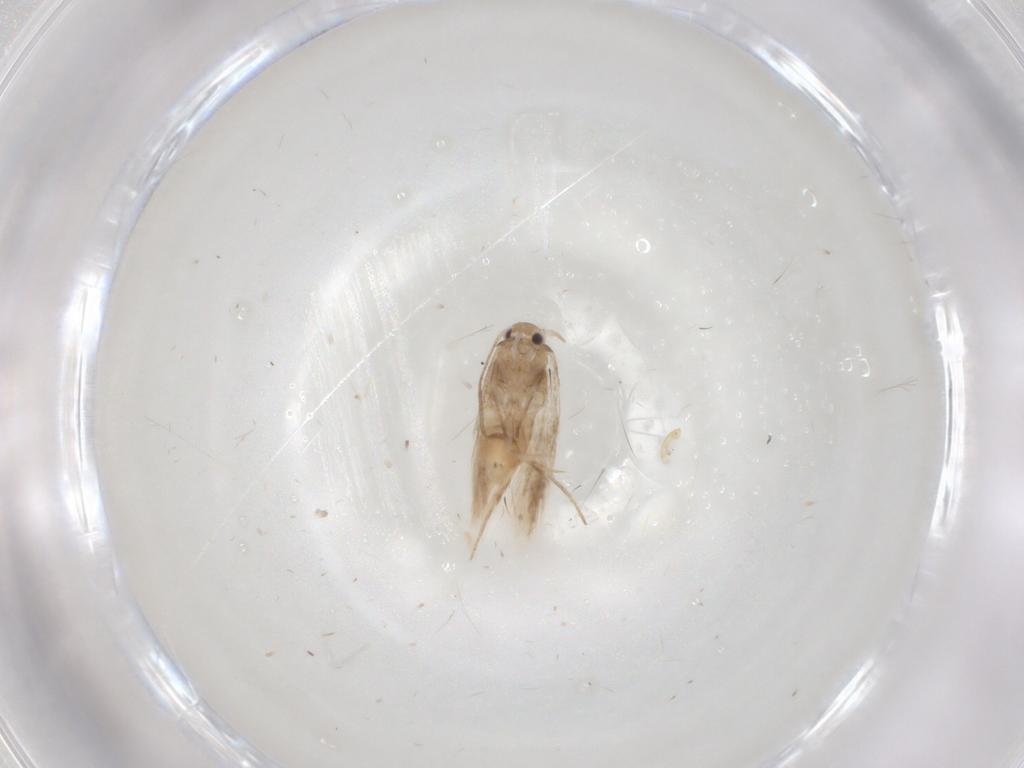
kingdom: Animalia
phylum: Arthropoda
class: Insecta
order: Lepidoptera
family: Nymphalidae
